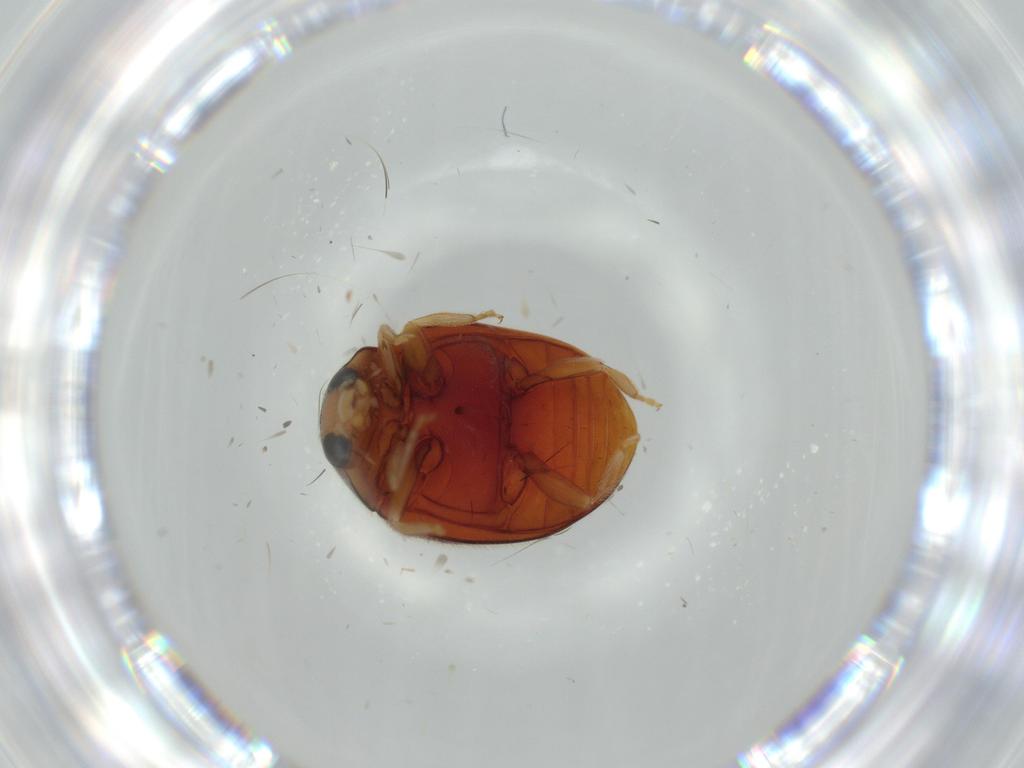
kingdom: Animalia
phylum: Arthropoda
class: Insecta
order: Coleoptera
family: Coccinellidae
